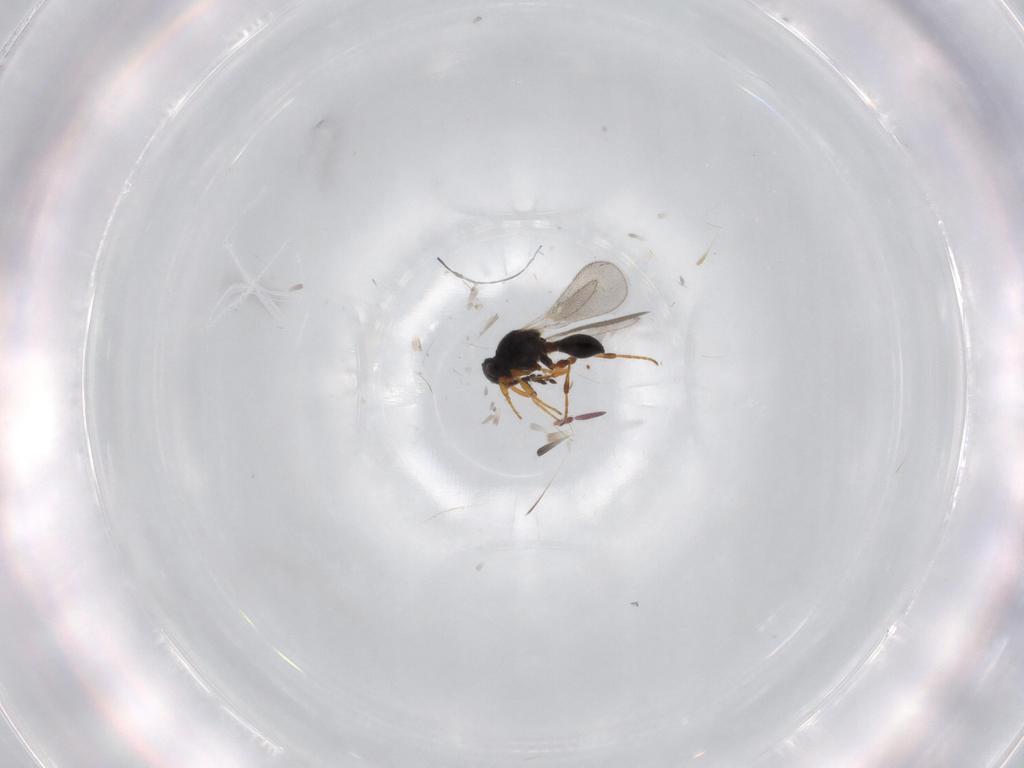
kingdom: Animalia
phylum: Arthropoda
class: Insecta
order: Hymenoptera
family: Platygastridae
